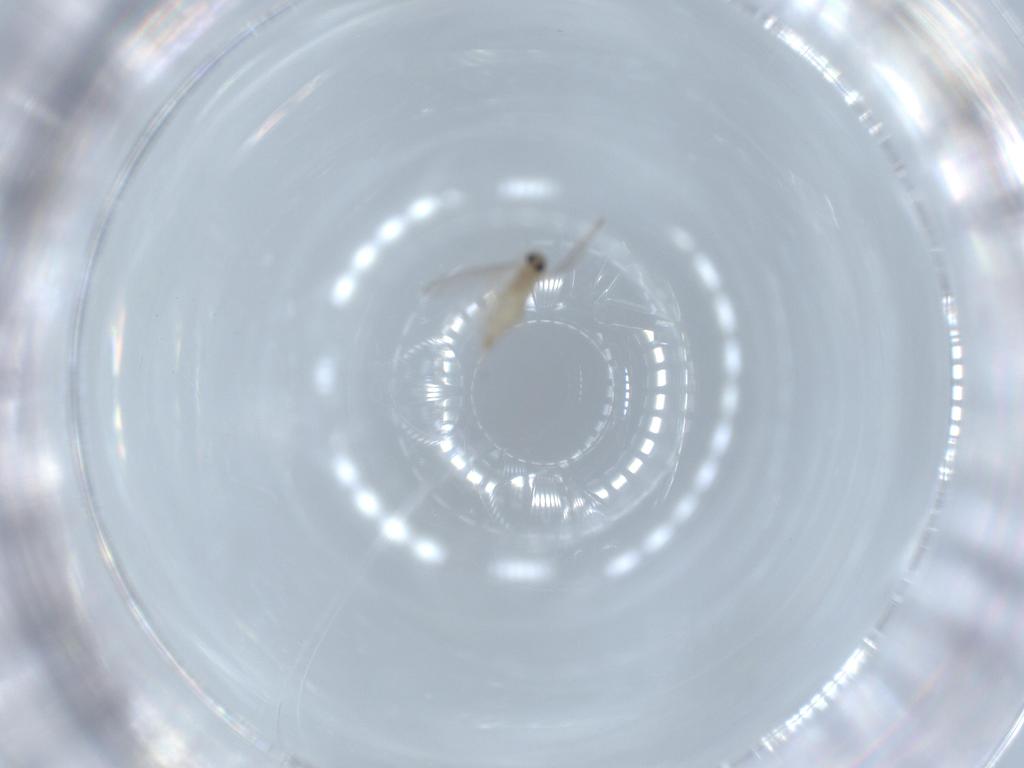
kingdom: Animalia
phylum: Arthropoda
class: Insecta
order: Diptera
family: Cecidomyiidae
